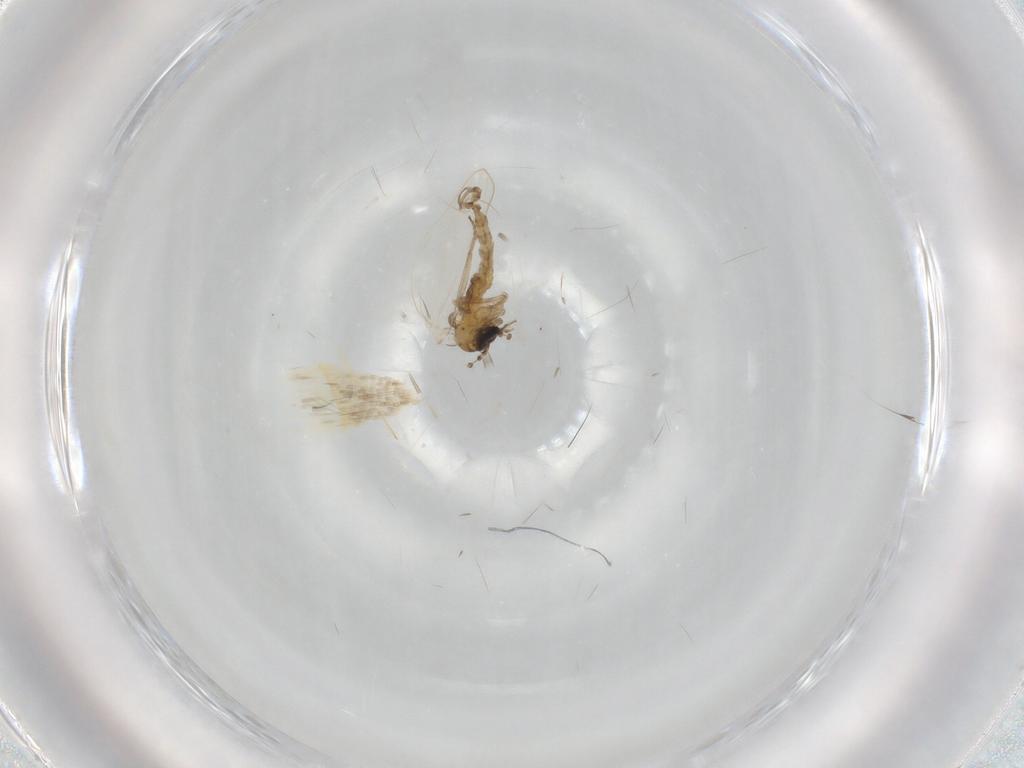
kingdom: Animalia
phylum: Arthropoda
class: Insecta
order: Diptera
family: Psychodidae
